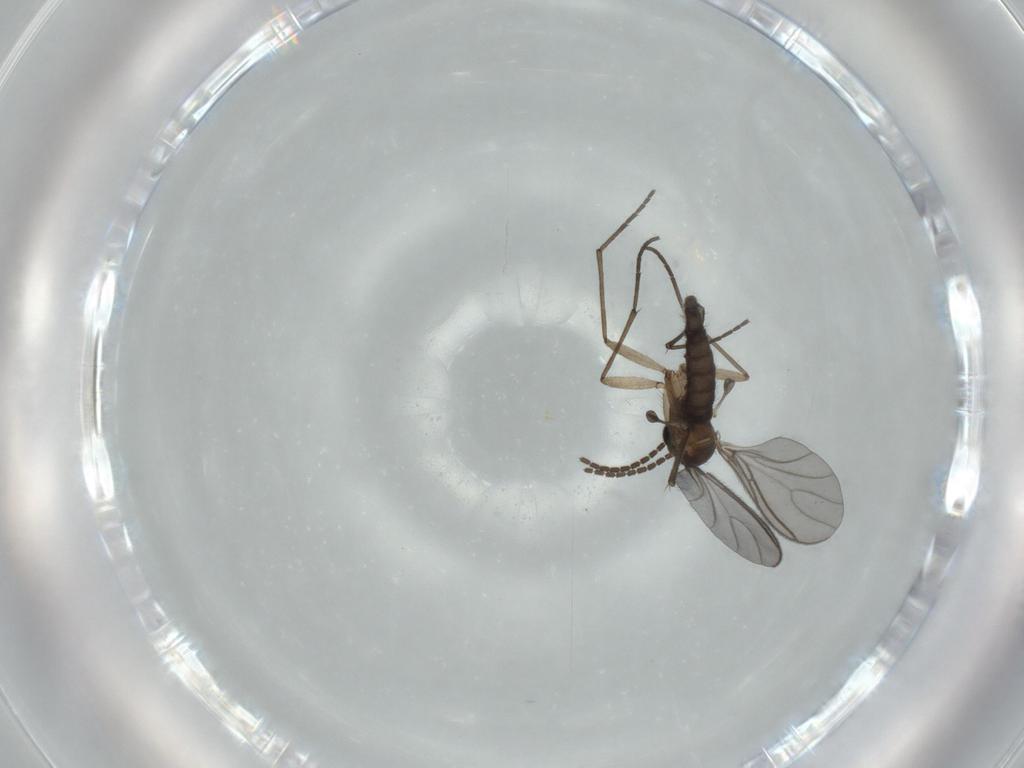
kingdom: Animalia
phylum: Arthropoda
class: Insecta
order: Diptera
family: Sciaridae
